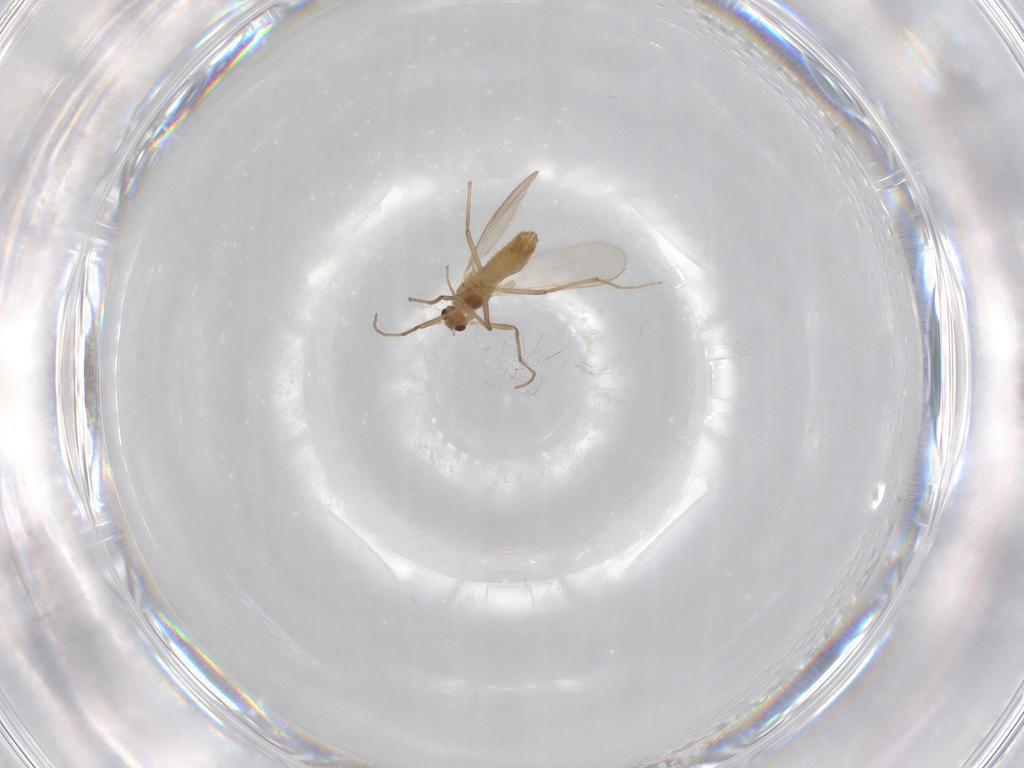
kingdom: Animalia
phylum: Arthropoda
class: Insecta
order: Diptera
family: Chironomidae
